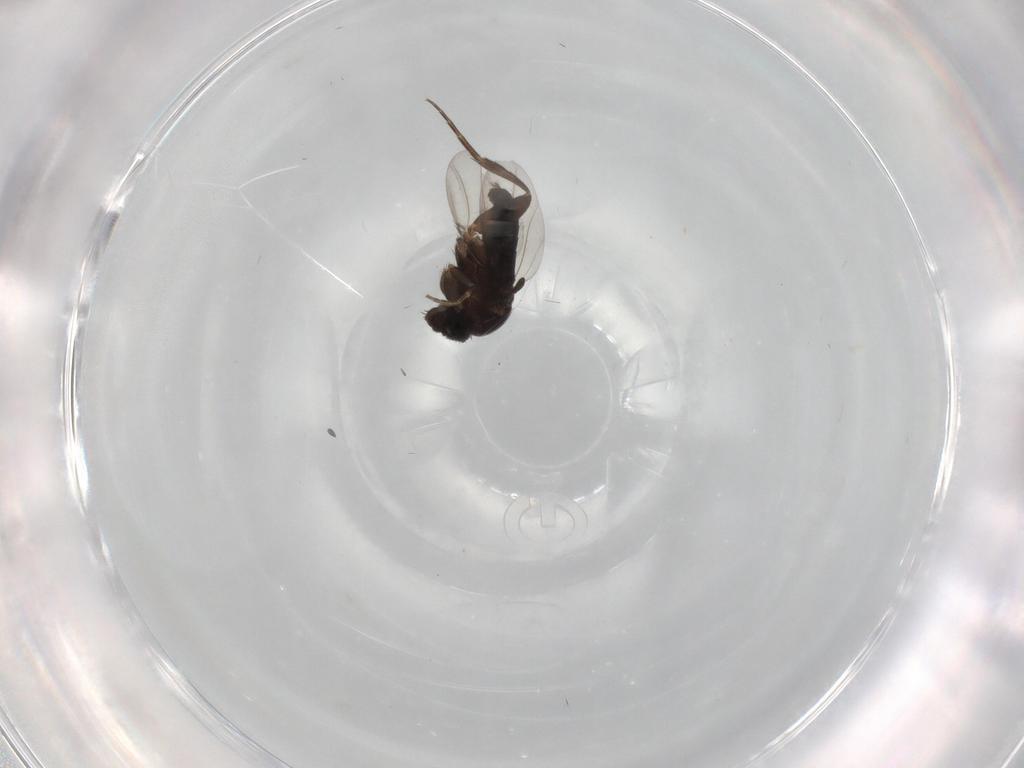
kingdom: Animalia
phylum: Arthropoda
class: Insecta
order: Diptera
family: Phoridae
